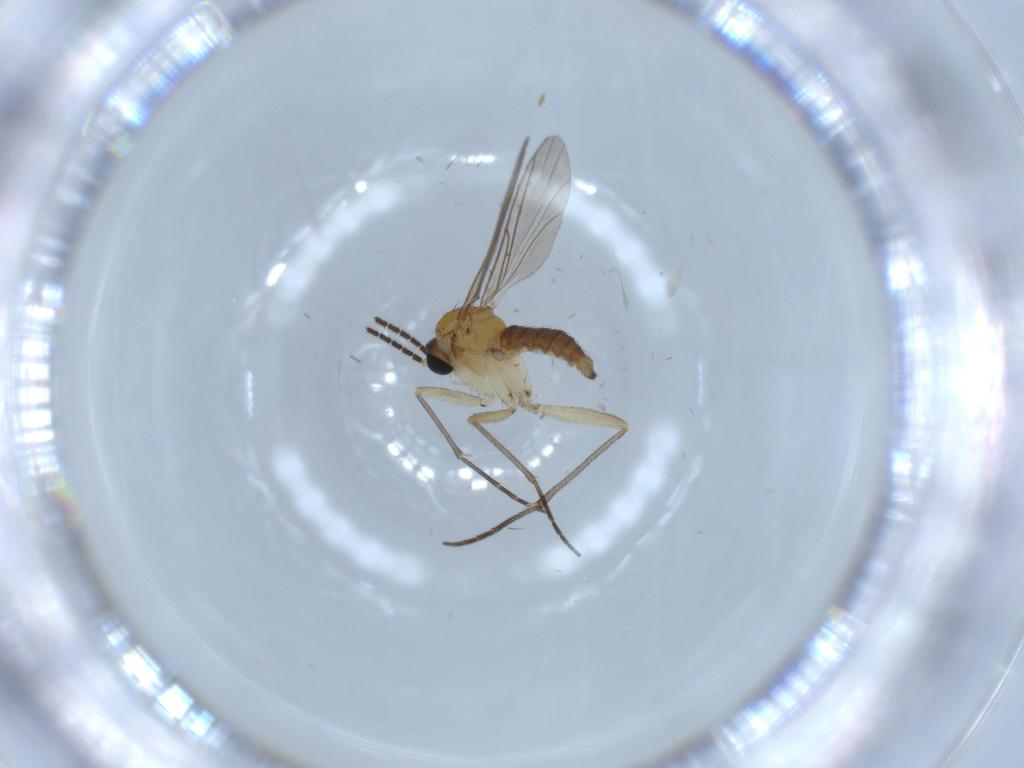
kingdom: Animalia
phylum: Arthropoda
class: Insecta
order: Diptera
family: Sciaridae
